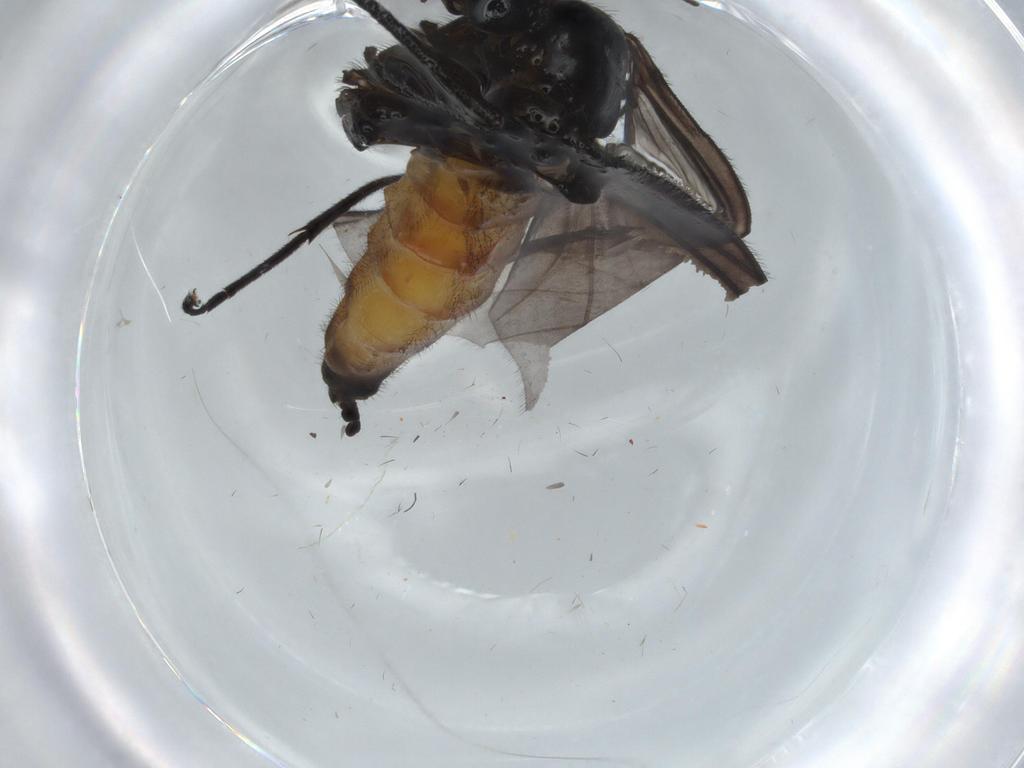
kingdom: Animalia
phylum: Arthropoda
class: Insecta
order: Diptera
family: Psychodidae
